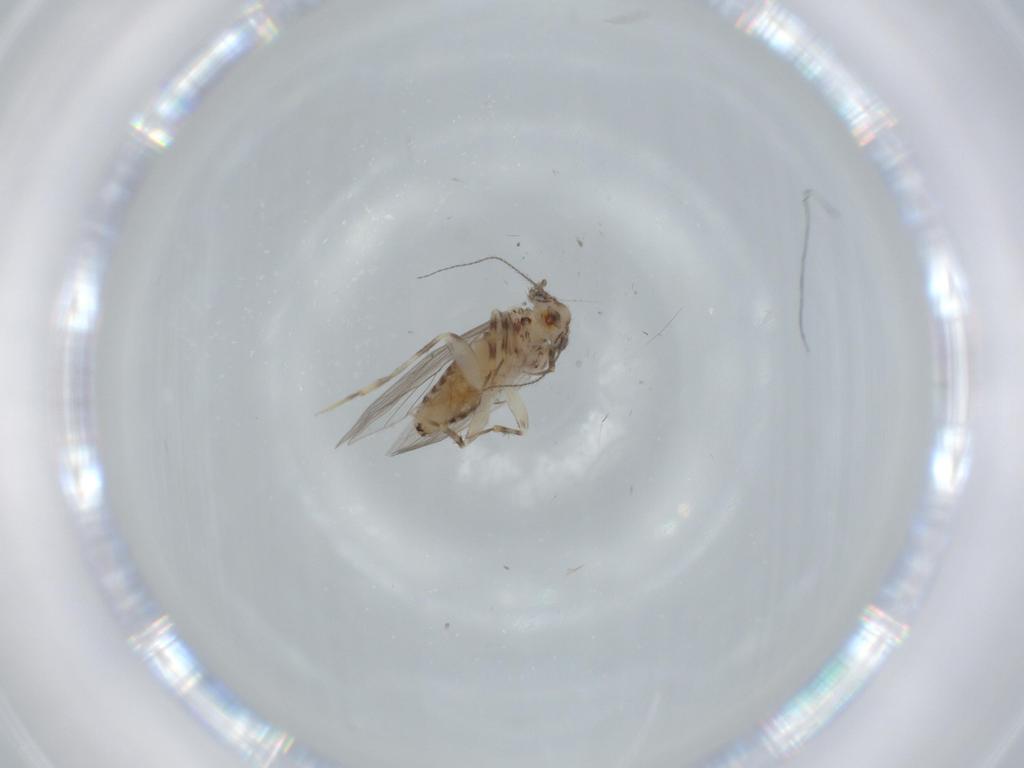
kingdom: Animalia
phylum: Arthropoda
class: Insecta
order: Psocodea
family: Lepidopsocidae
